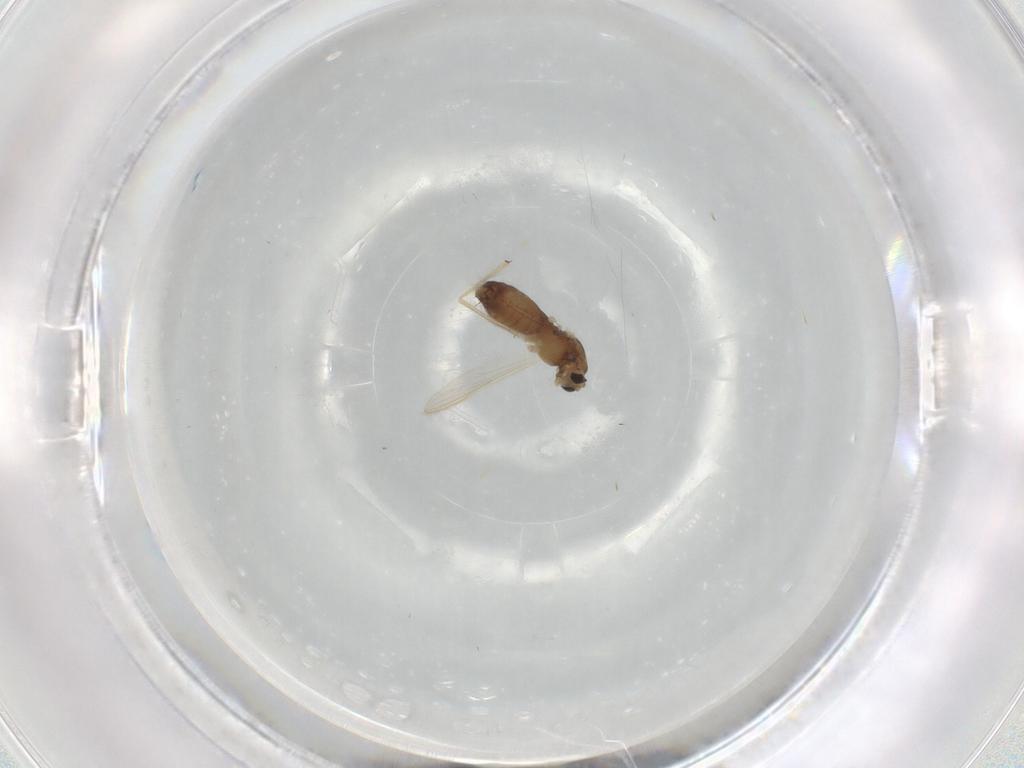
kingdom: Animalia
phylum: Arthropoda
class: Insecta
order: Diptera
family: Chironomidae
